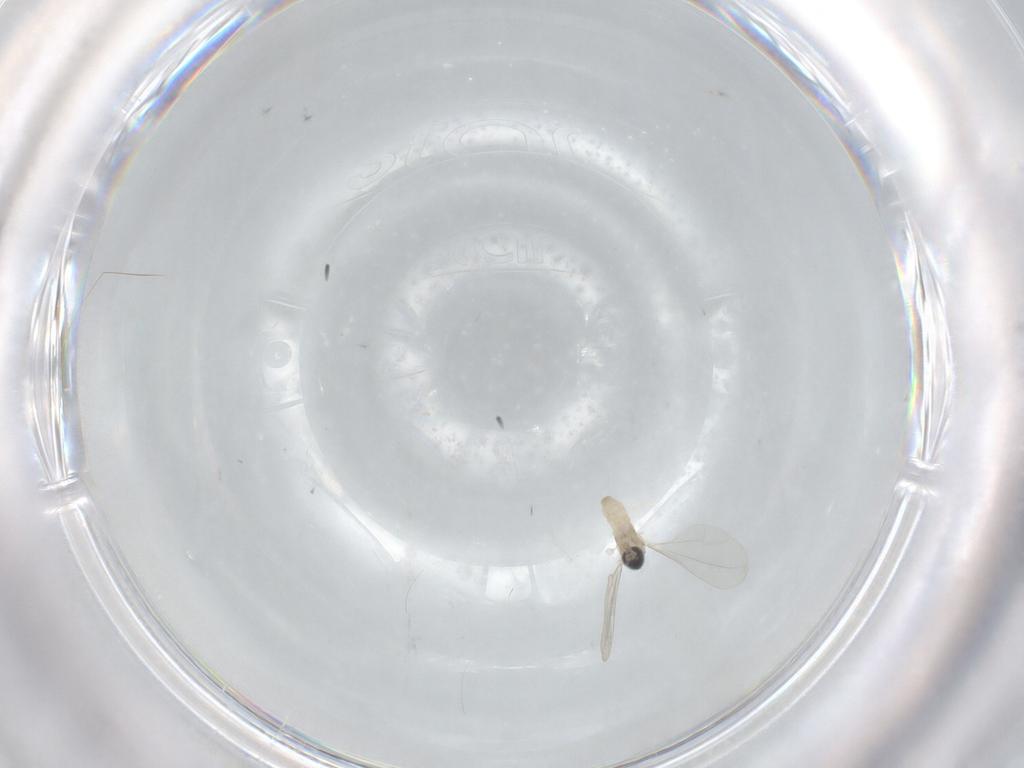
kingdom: Animalia
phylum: Arthropoda
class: Insecta
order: Diptera
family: Cecidomyiidae
